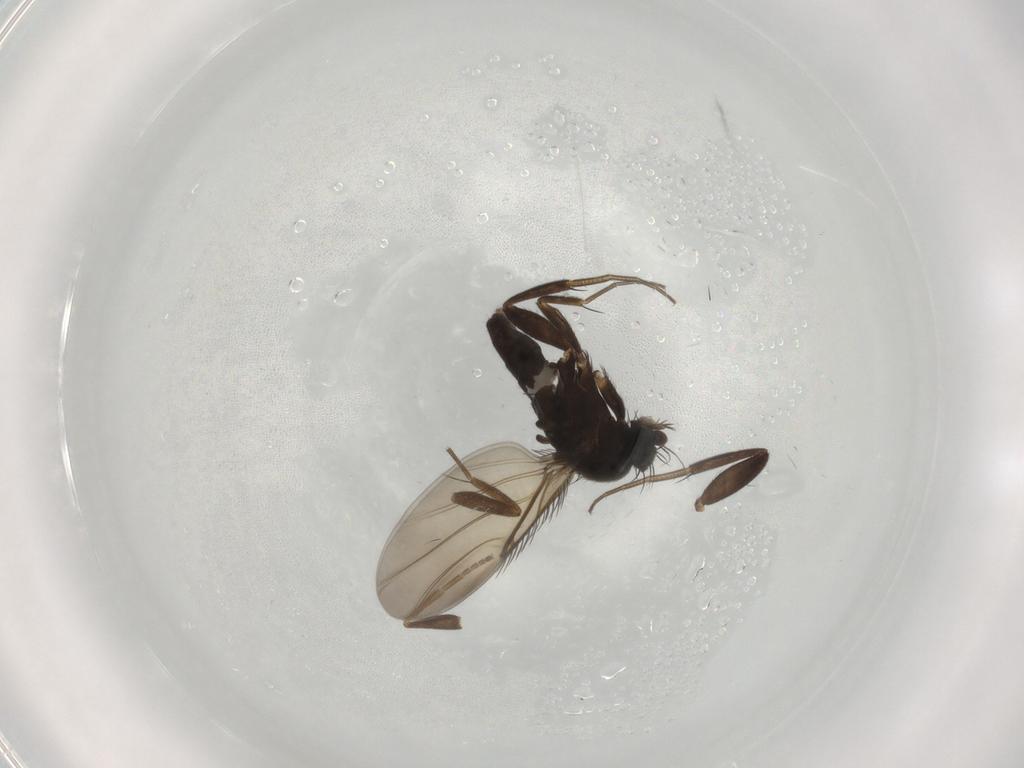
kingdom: Animalia
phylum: Arthropoda
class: Insecta
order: Diptera
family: Phoridae
